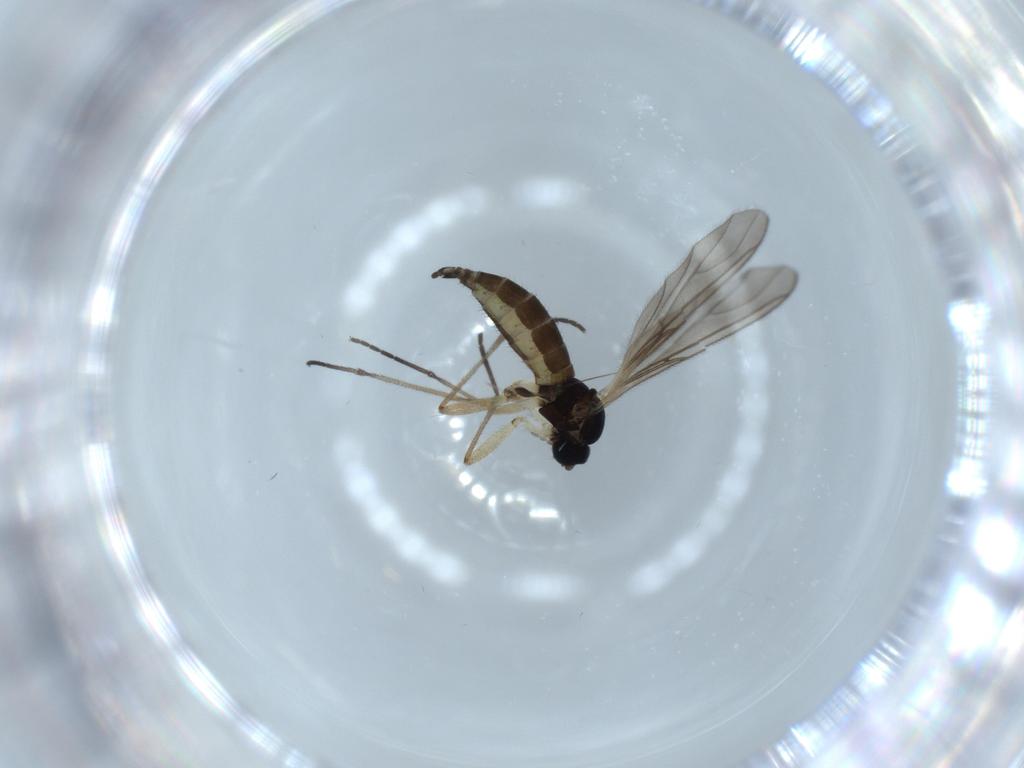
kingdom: Animalia
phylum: Arthropoda
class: Insecta
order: Diptera
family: Sciaridae
